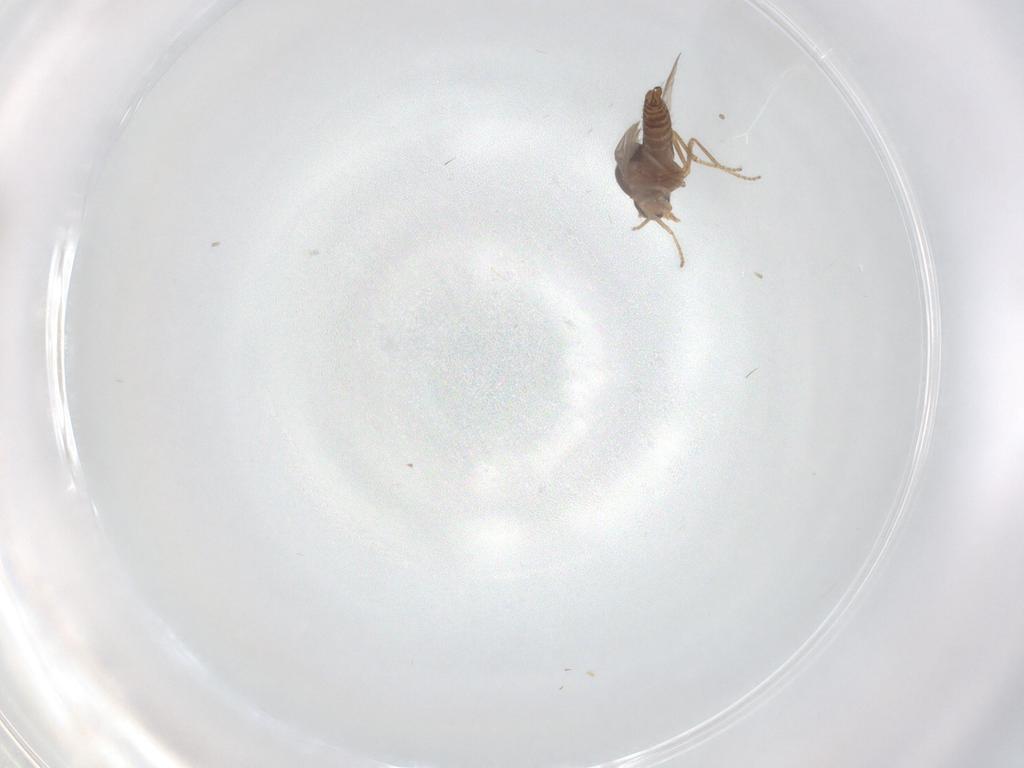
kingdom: Animalia
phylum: Arthropoda
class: Insecta
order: Diptera
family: Ceratopogonidae
